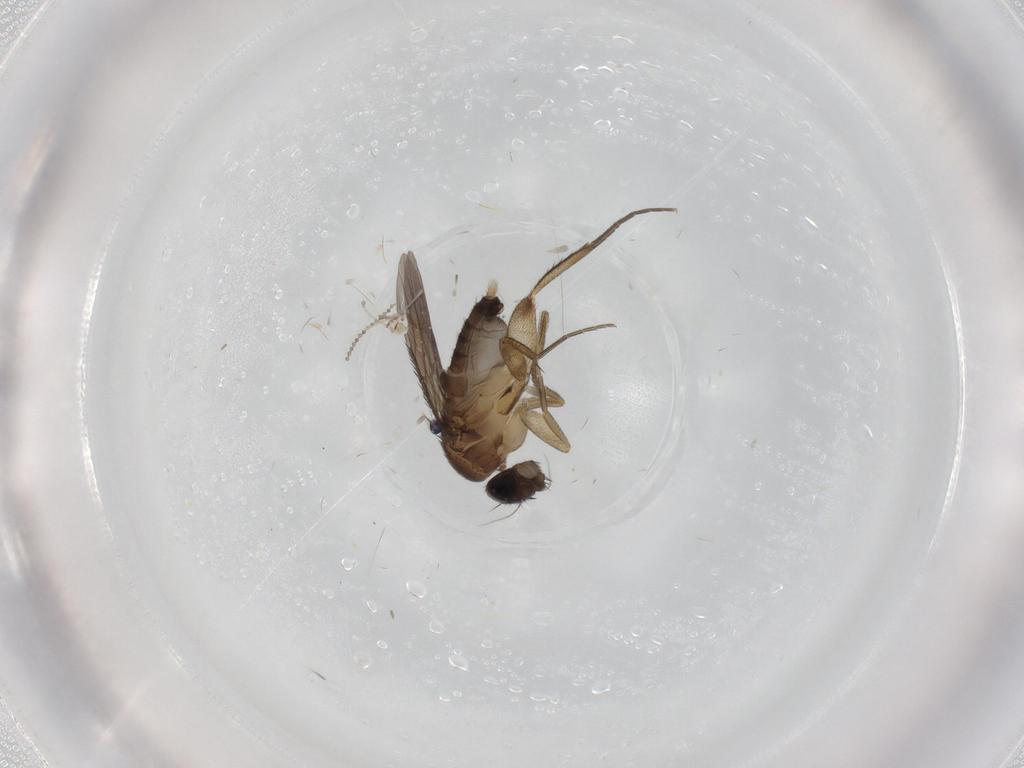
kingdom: Animalia
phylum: Arthropoda
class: Insecta
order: Diptera
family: Phoridae
